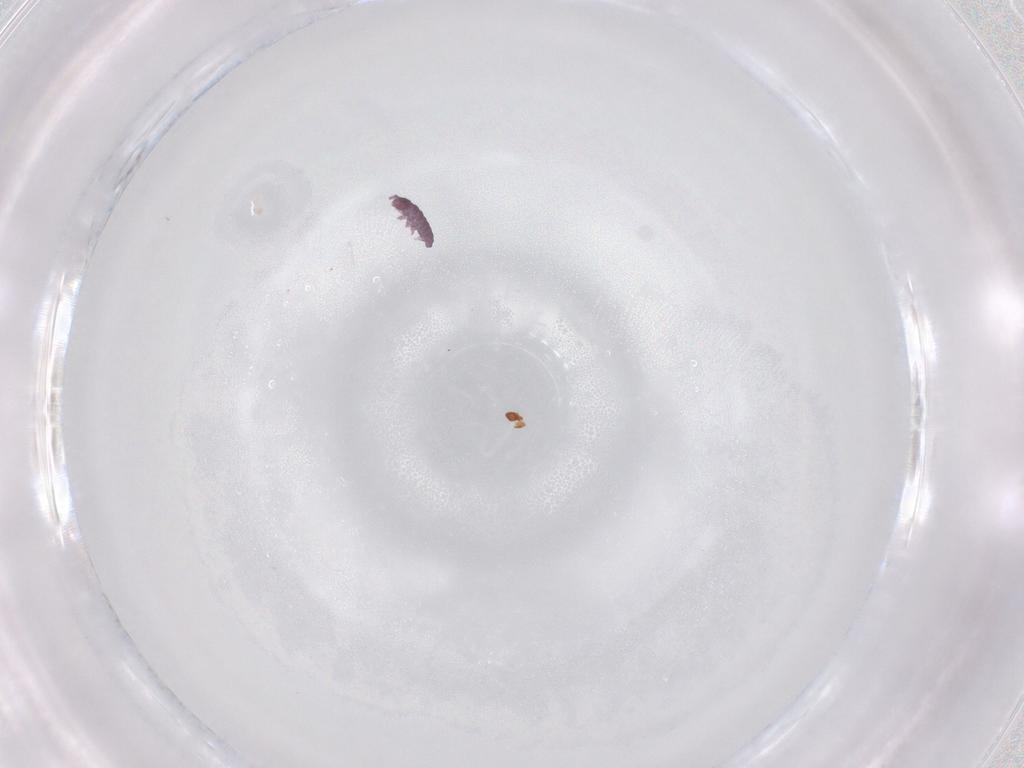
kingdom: Animalia
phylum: Arthropoda
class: Collembola
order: Poduromorpha
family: Hypogastruridae
